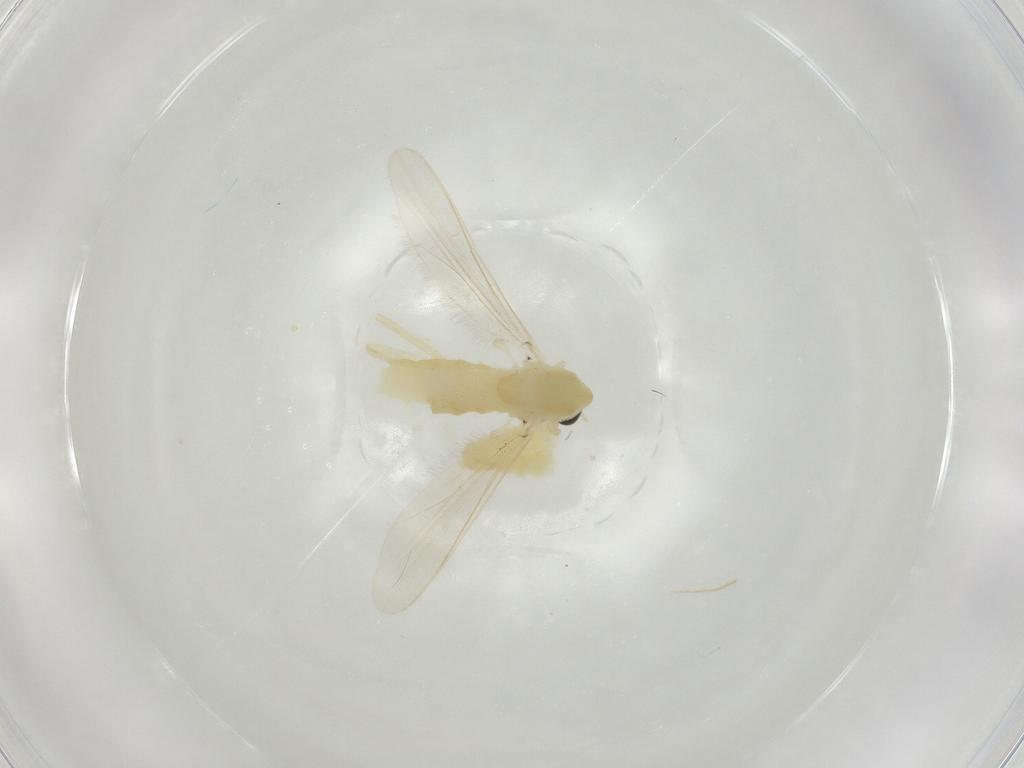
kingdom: Animalia
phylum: Arthropoda
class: Insecta
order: Diptera
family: Chironomidae
